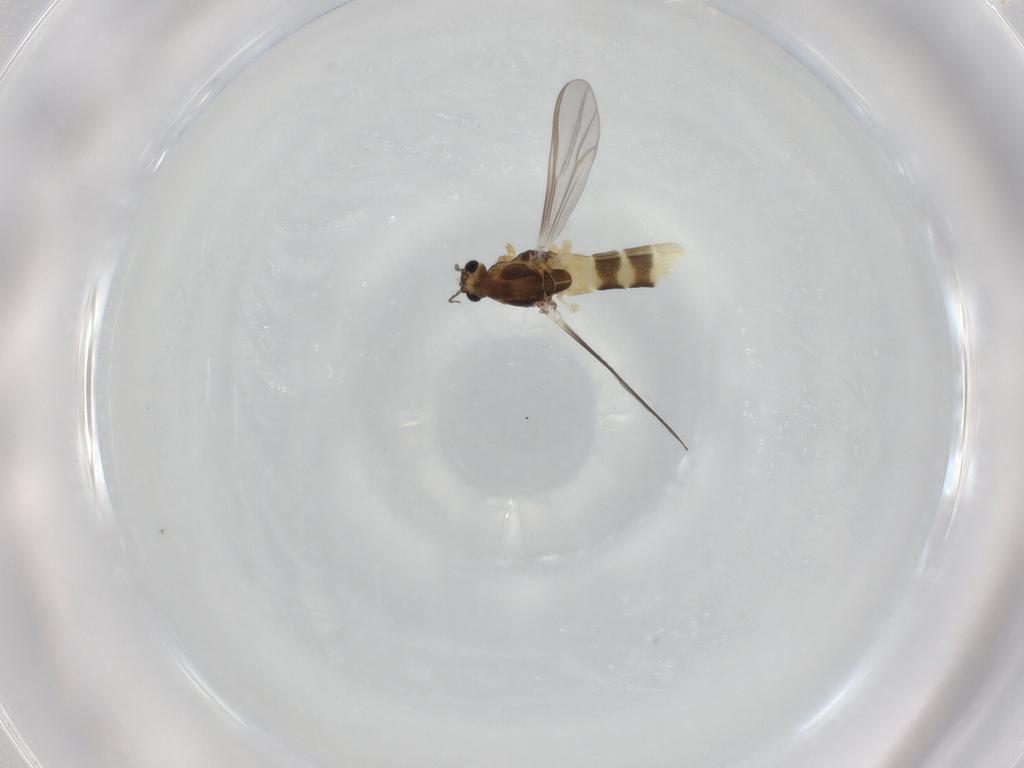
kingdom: Animalia
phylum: Arthropoda
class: Insecta
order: Diptera
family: Chironomidae
